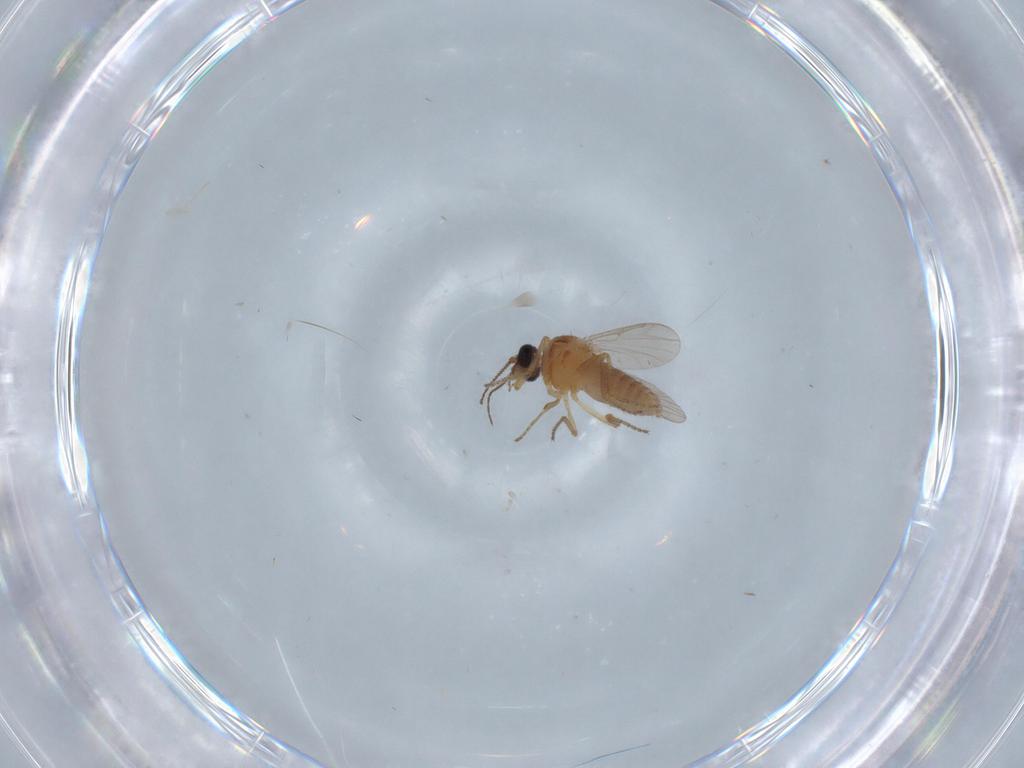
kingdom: Animalia
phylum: Arthropoda
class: Insecta
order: Diptera
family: Ceratopogonidae
